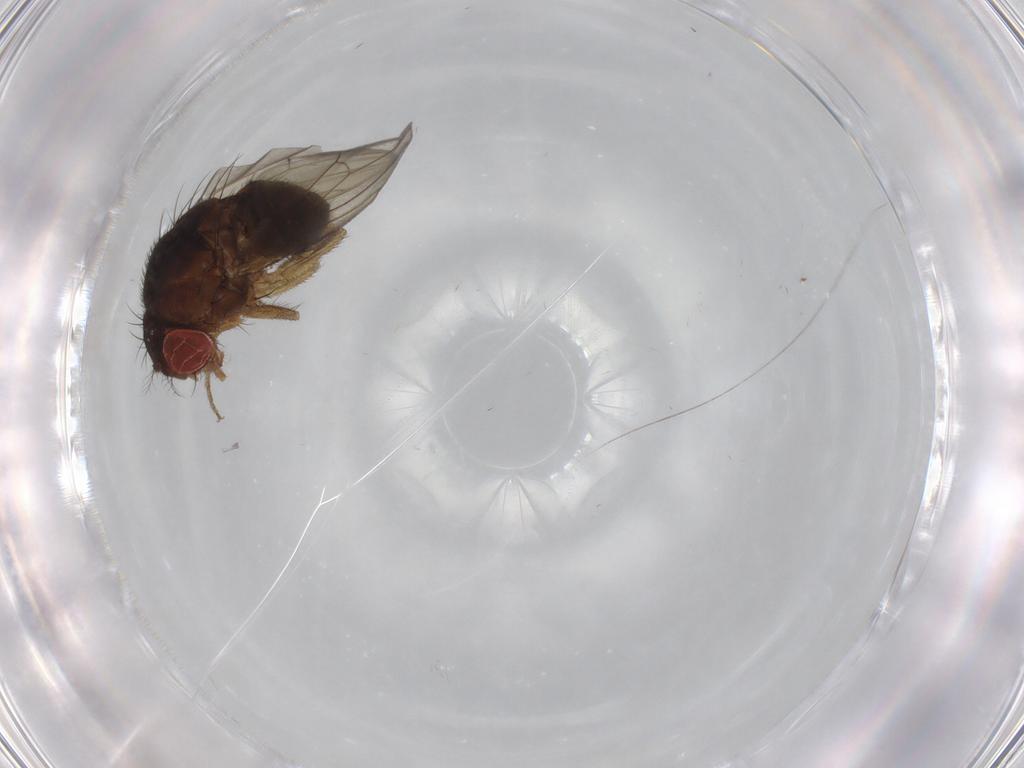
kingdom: Animalia
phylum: Arthropoda
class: Insecta
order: Diptera
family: Drosophilidae
